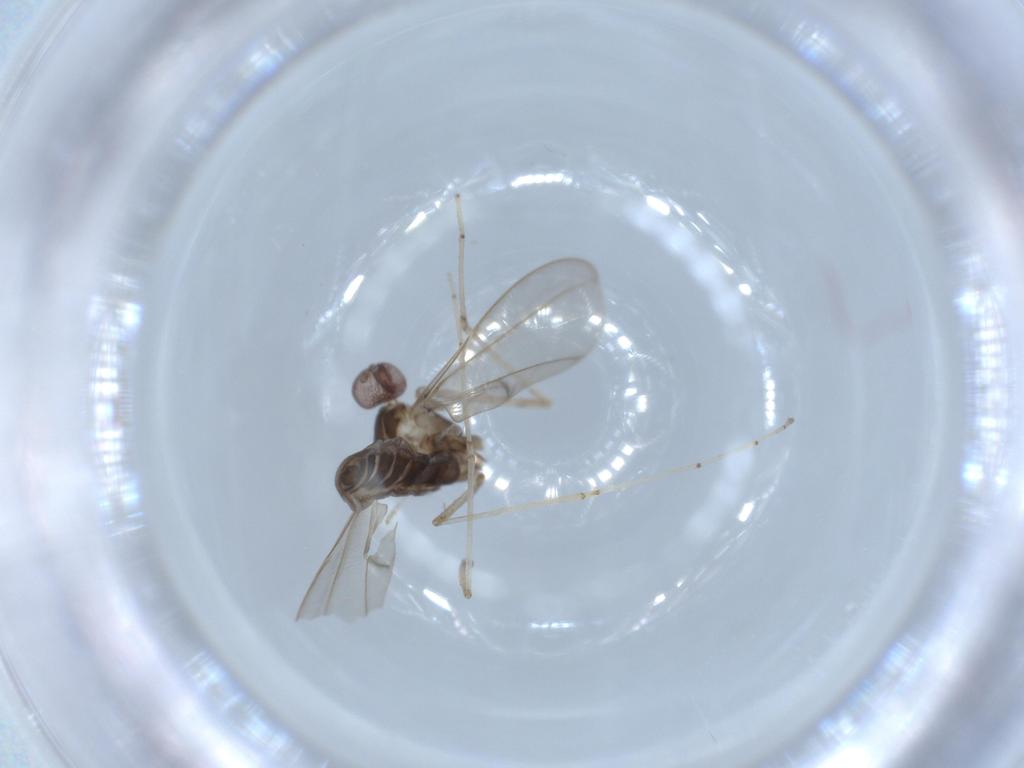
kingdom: Animalia
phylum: Arthropoda
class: Insecta
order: Diptera
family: Cecidomyiidae
